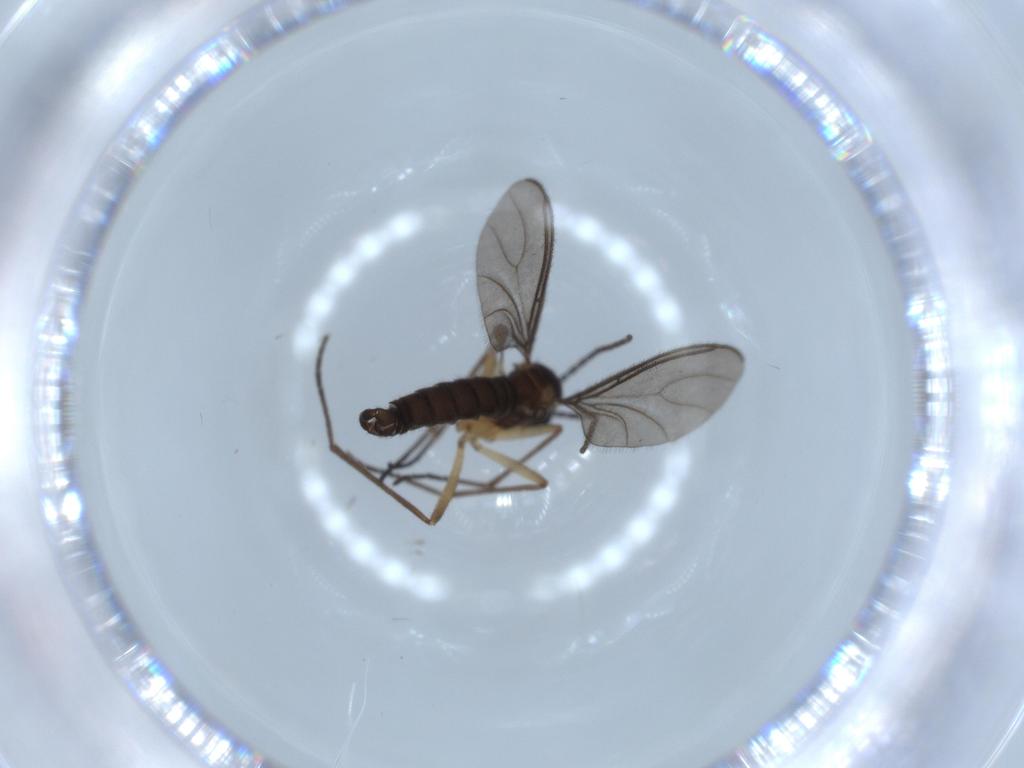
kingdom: Animalia
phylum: Arthropoda
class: Insecta
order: Diptera
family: Sciaridae
